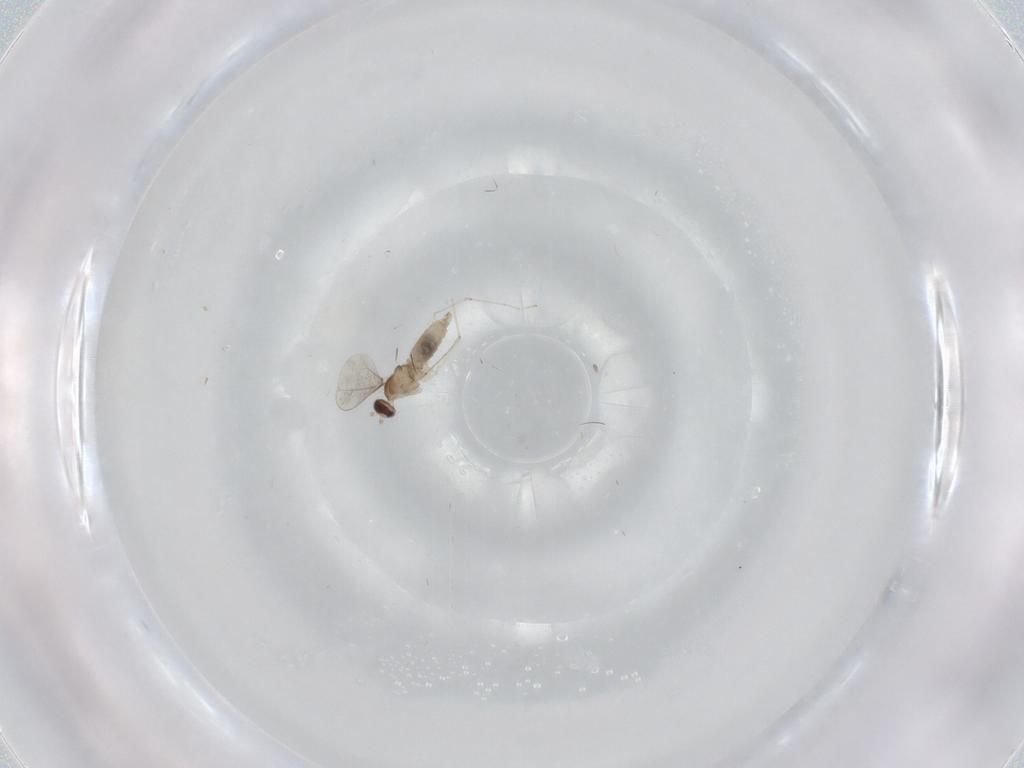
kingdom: Animalia
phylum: Arthropoda
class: Insecta
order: Diptera
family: Cecidomyiidae
